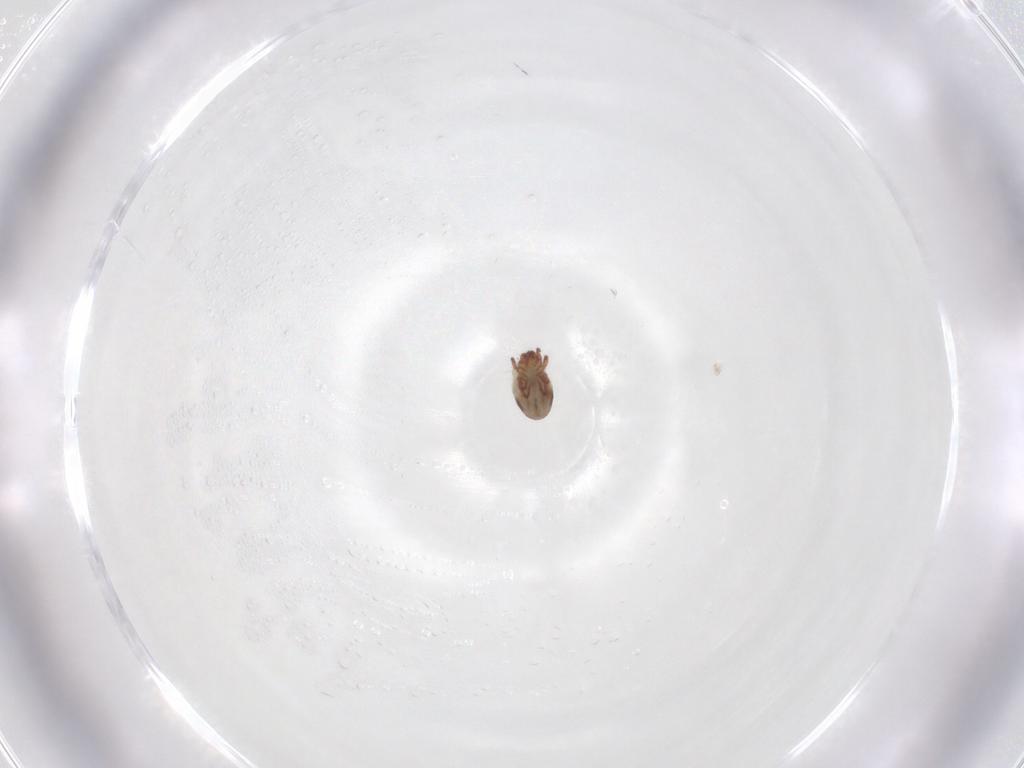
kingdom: Animalia
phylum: Arthropoda
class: Arachnida
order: Sarcoptiformes
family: Humerobatidae
